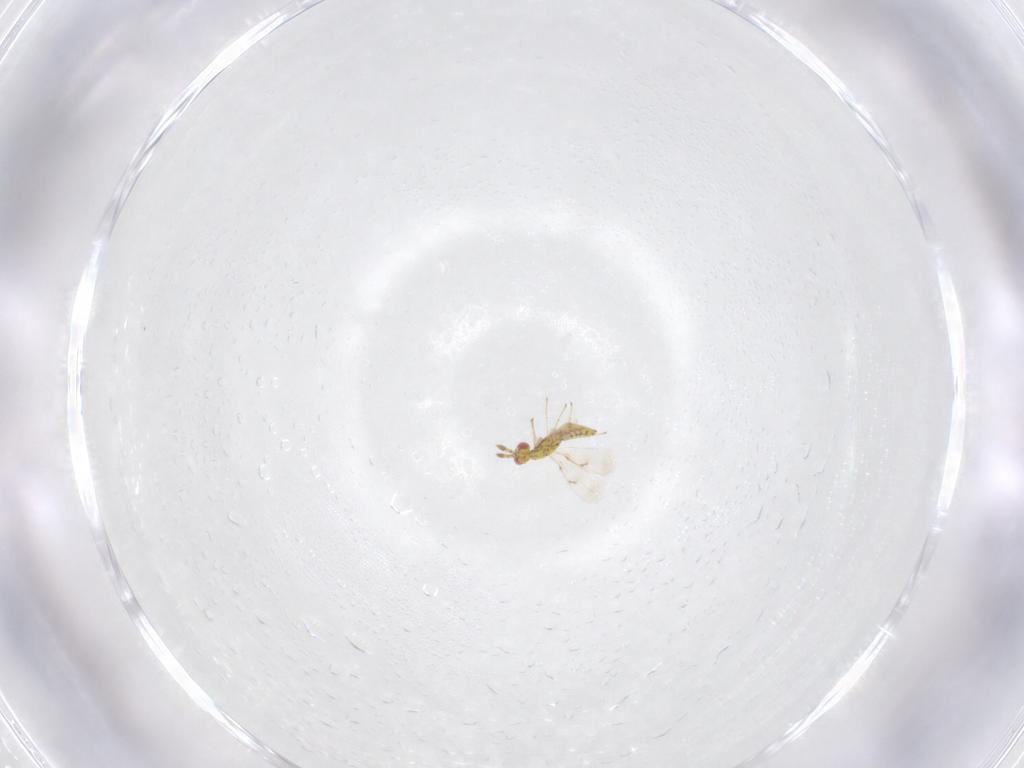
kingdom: Animalia
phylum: Arthropoda
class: Insecta
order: Hymenoptera
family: Eulophidae
